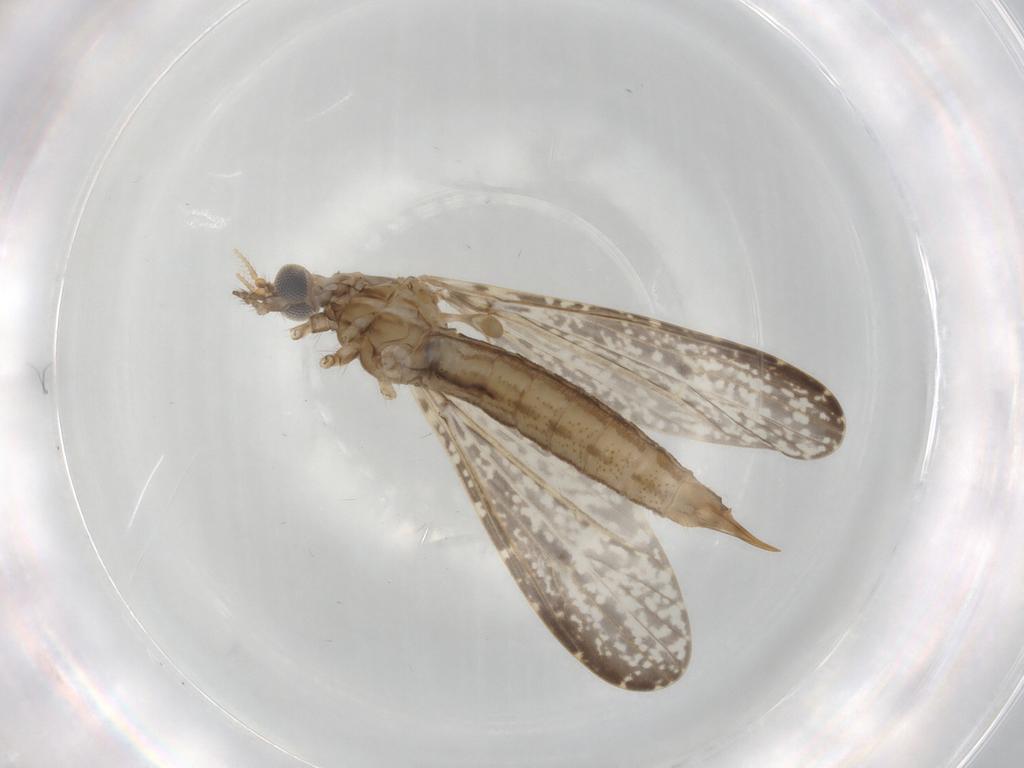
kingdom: Animalia
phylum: Arthropoda
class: Insecta
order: Diptera
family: Limoniidae
